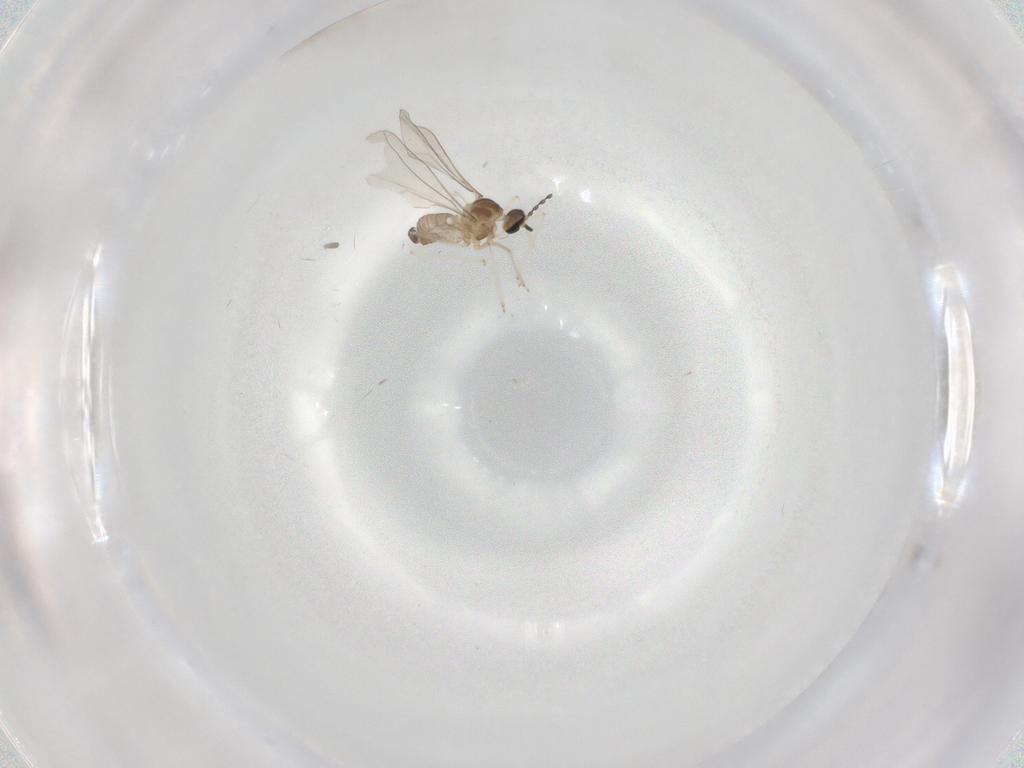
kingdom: Animalia
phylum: Arthropoda
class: Insecta
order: Diptera
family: Cecidomyiidae
